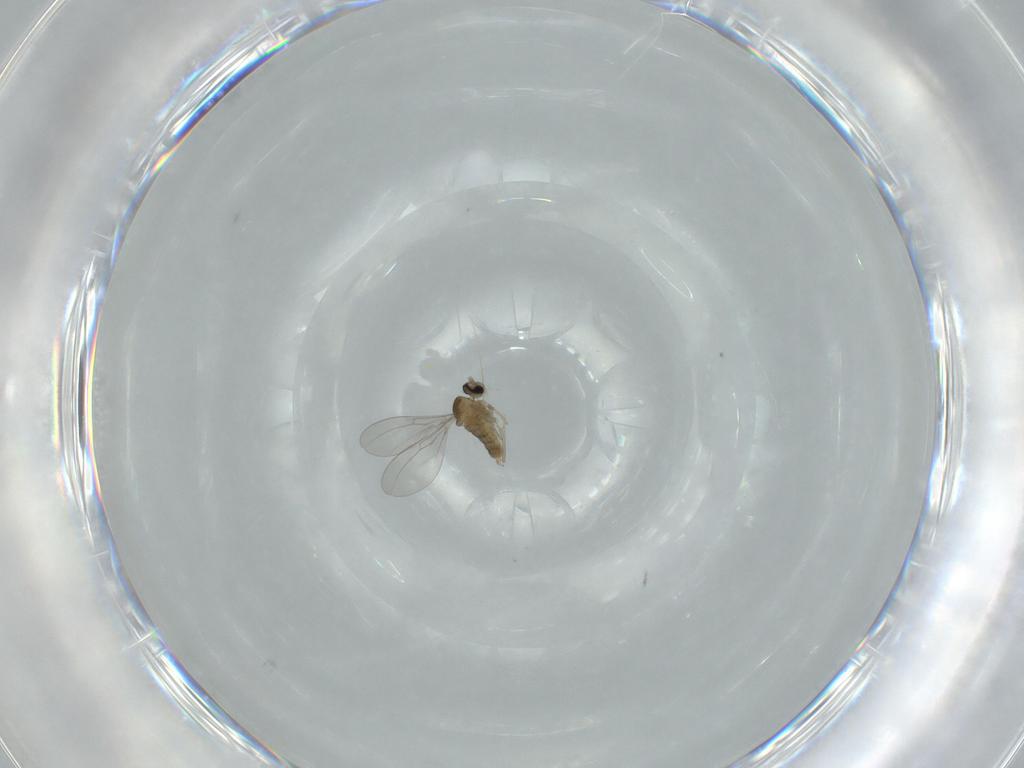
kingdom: Animalia
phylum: Arthropoda
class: Insecta
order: Diptera
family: Cecidomyiidae
